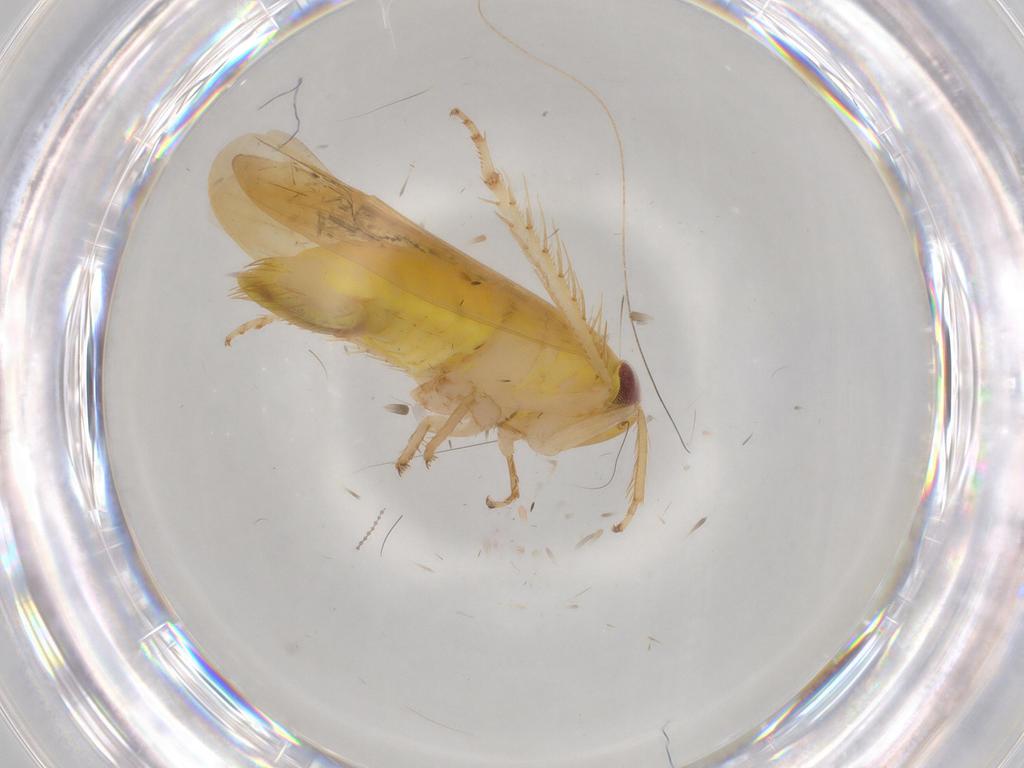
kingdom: Animalia
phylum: Arthropoda
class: Insecta
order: Hemiptera
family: Cicadellidae
